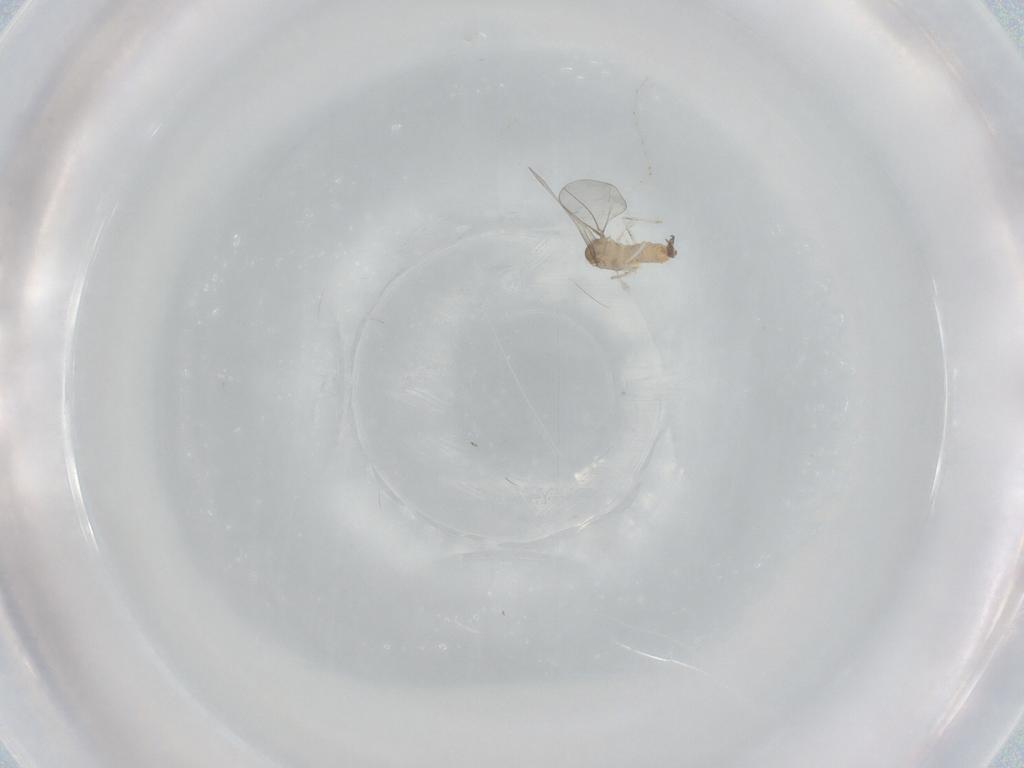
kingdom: Animalia
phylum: Arthropoda
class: Insecta
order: Diptera
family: Cecidomyiidae
